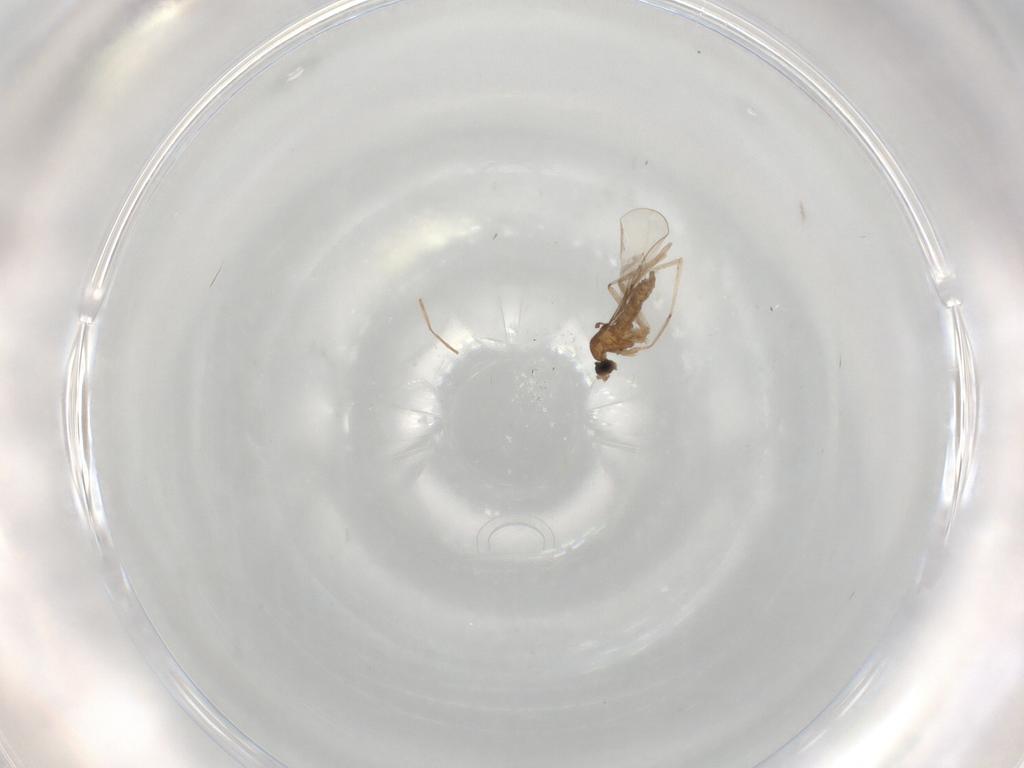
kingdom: Animalia
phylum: Arthropoda
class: Insecta
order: Diptera
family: Cecidomyiidae
